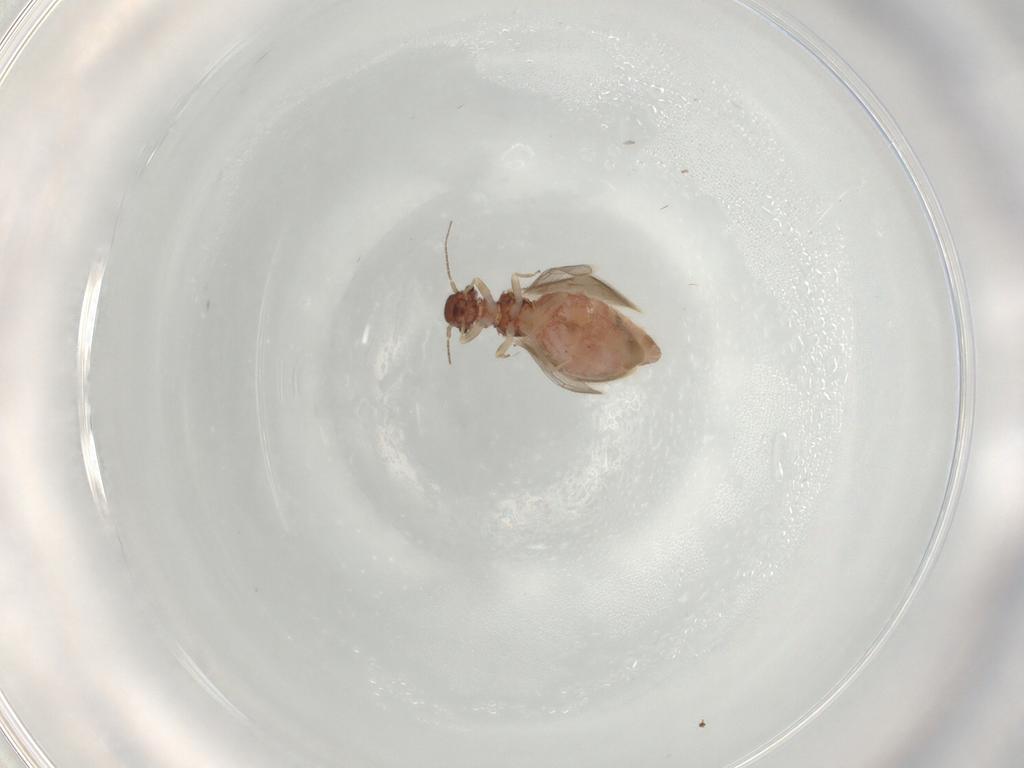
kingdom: Animalia
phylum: Arthropoda
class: Insecta
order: Psocodea
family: Archipsocidae
